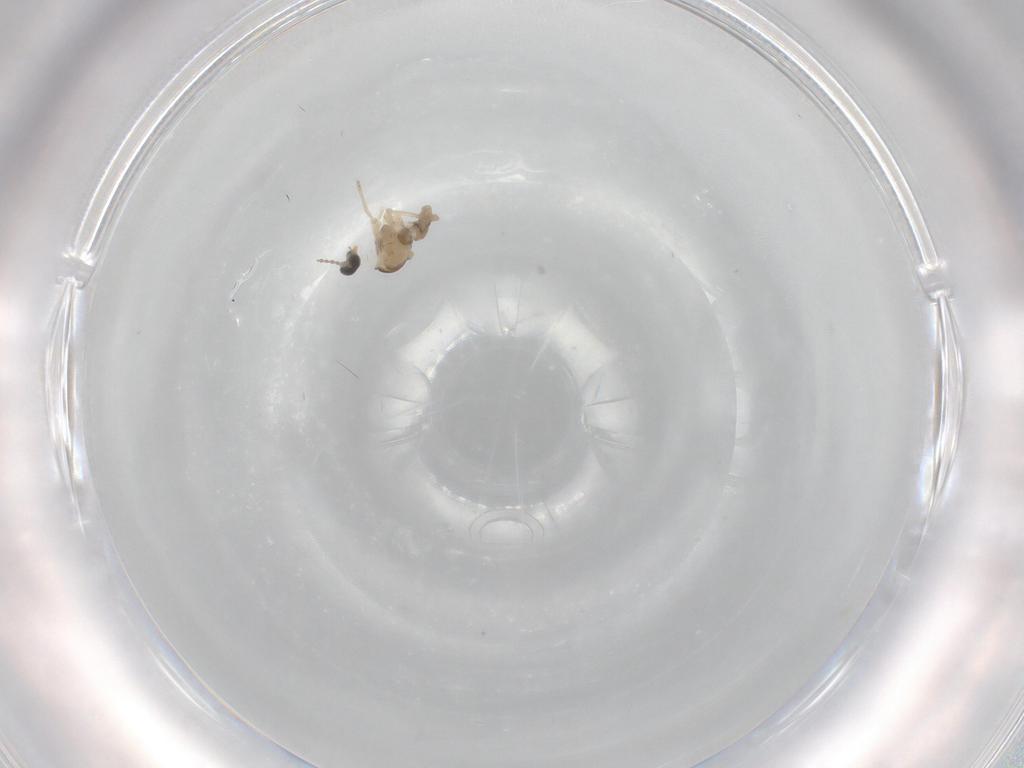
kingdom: Animalia
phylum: Arthropoda
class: Insecta
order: Diptera
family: Cecidomyiidae
